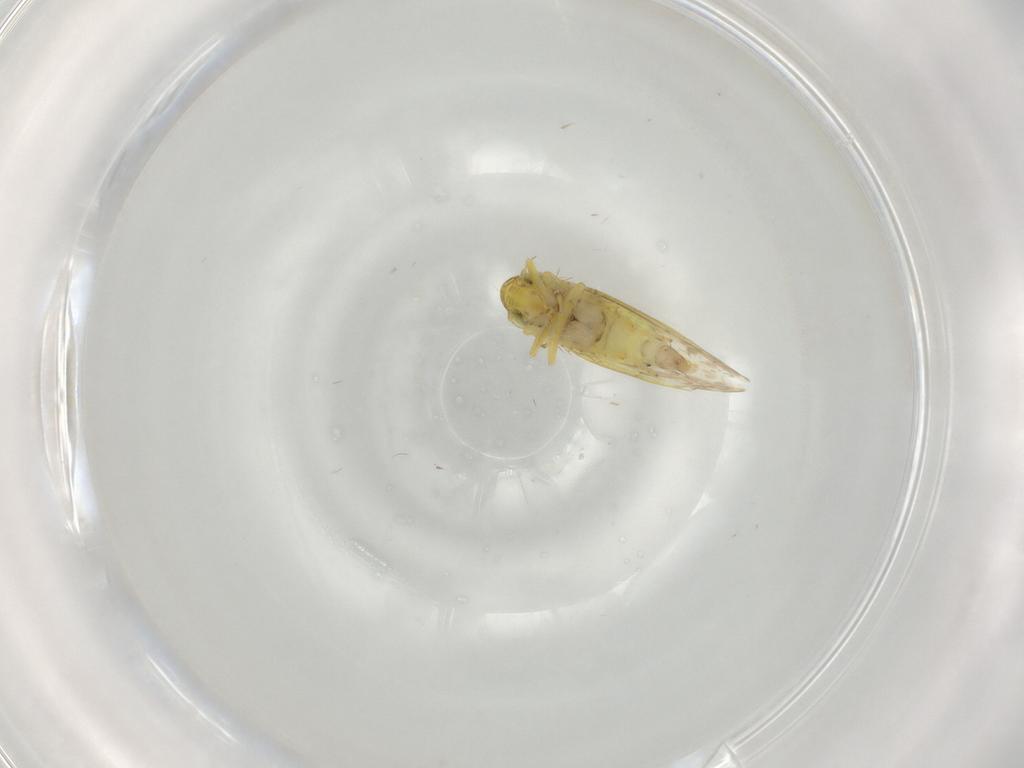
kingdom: Animalia
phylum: Arthropoda
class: Insecta
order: Hemiptera
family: Cicadellidae
